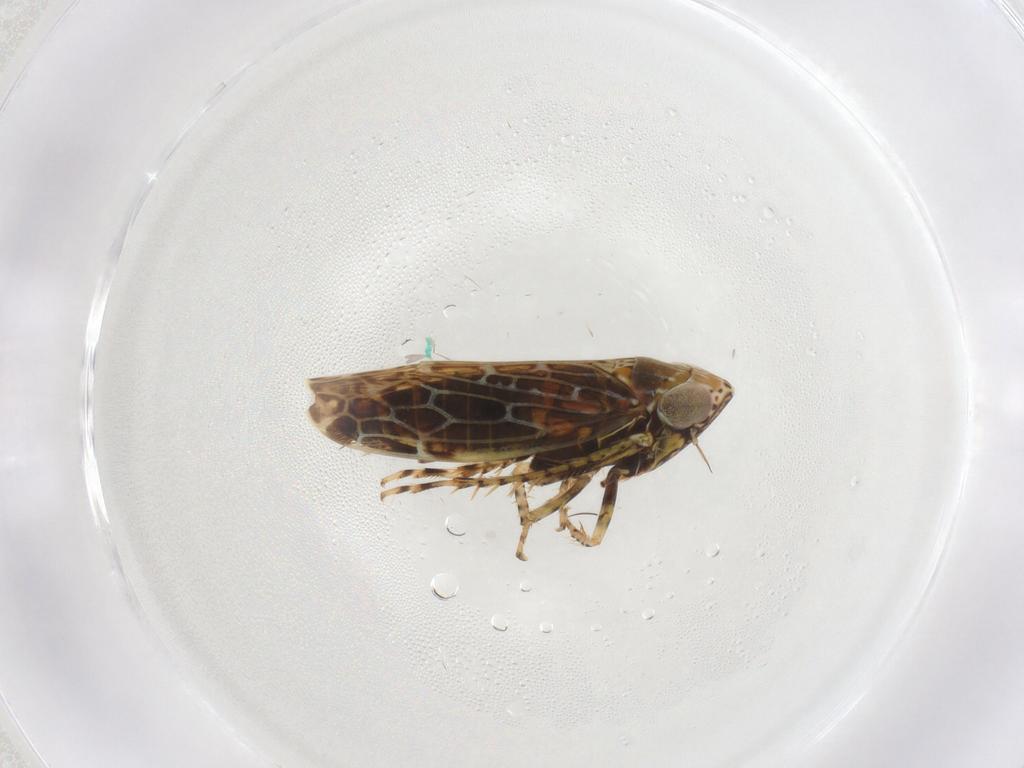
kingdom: Animalia
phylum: Arthropoda
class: Insecta
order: Hemiptera
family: Cicadellidae
